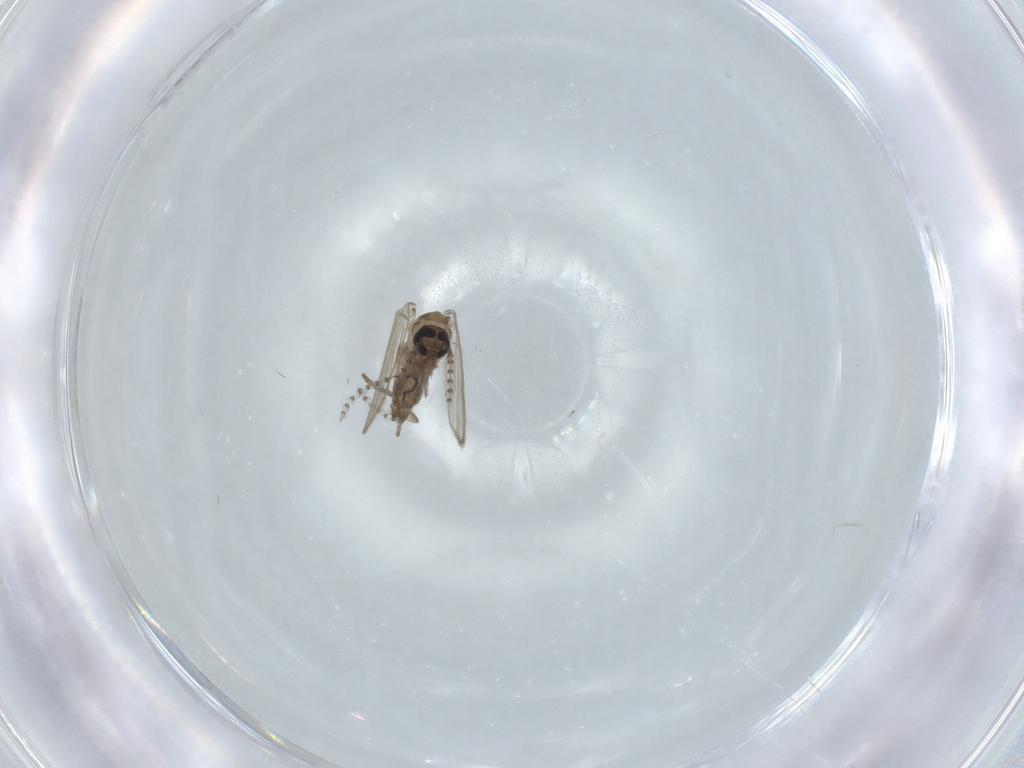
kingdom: Animalia
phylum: Arthropoda
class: Insecta
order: Diptera
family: Psychodidae
